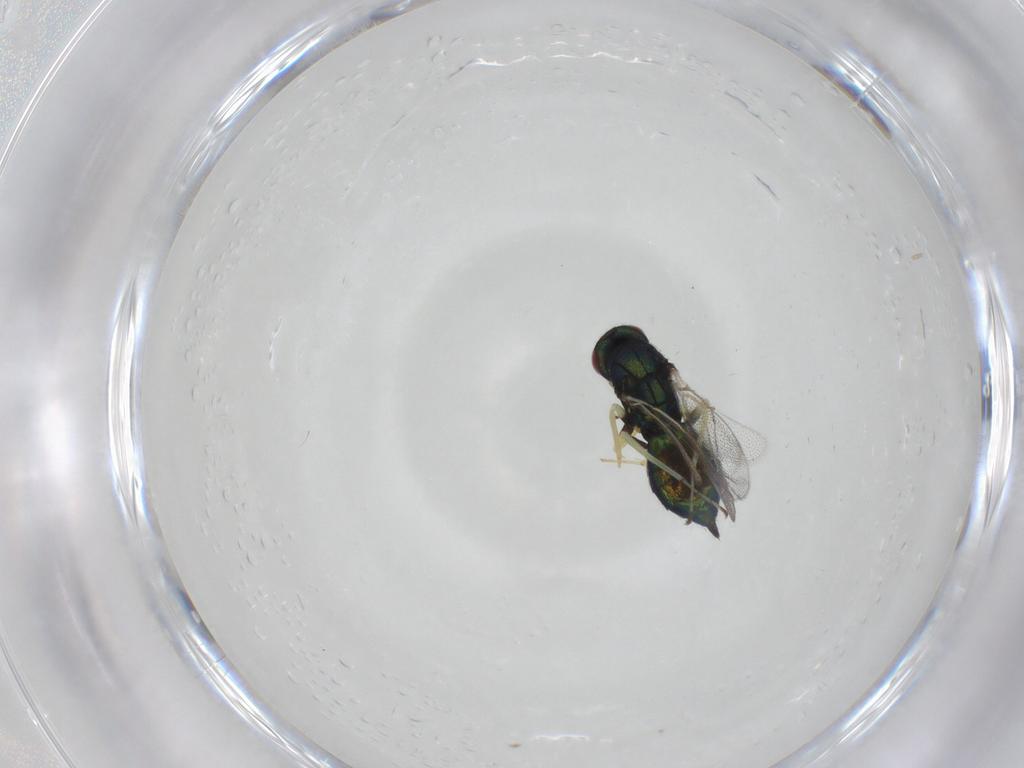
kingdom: Animalia
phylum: Arthropoda
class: Insecta
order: Hymenoptera
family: Eulophidae
